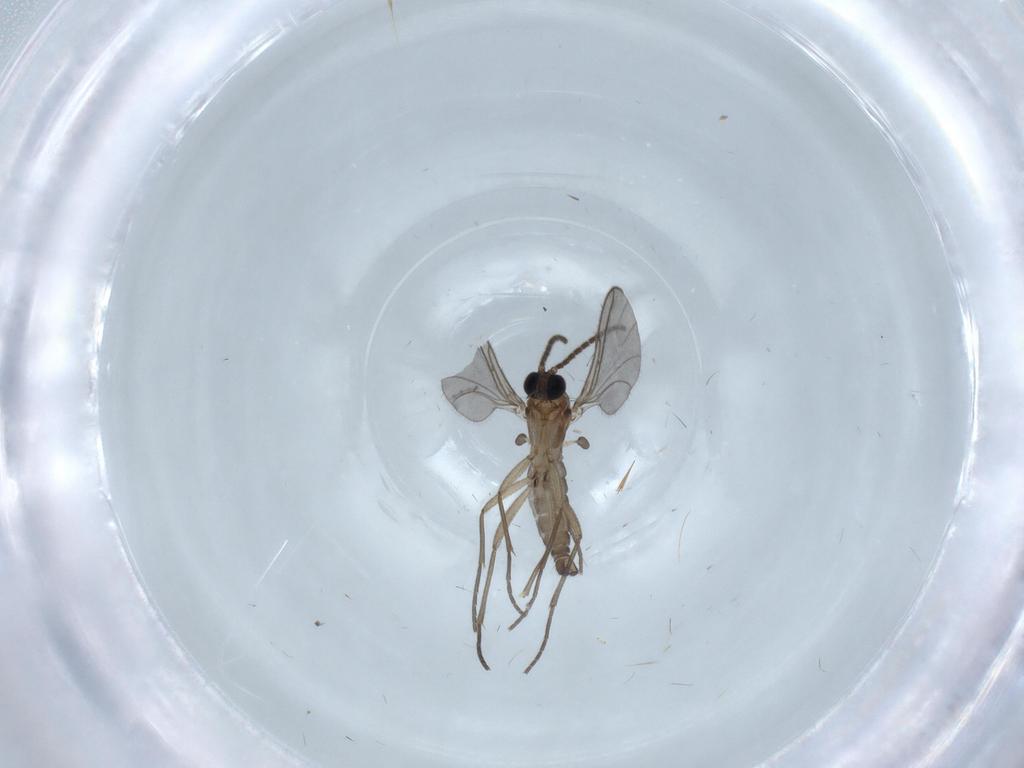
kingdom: Animalia
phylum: Arthropoda
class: Insecta
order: Diptera
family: Sciaridae
